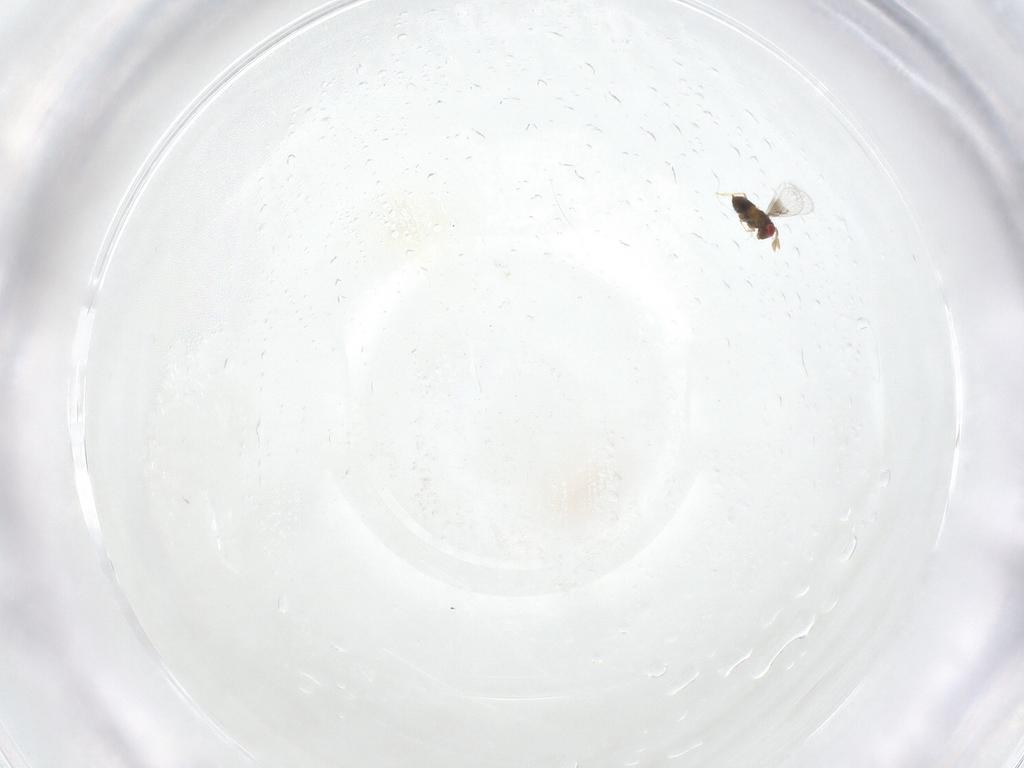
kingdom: Animalia
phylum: Arthropoda
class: Insecta
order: Hymenoptera
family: Trichogrammatidae
